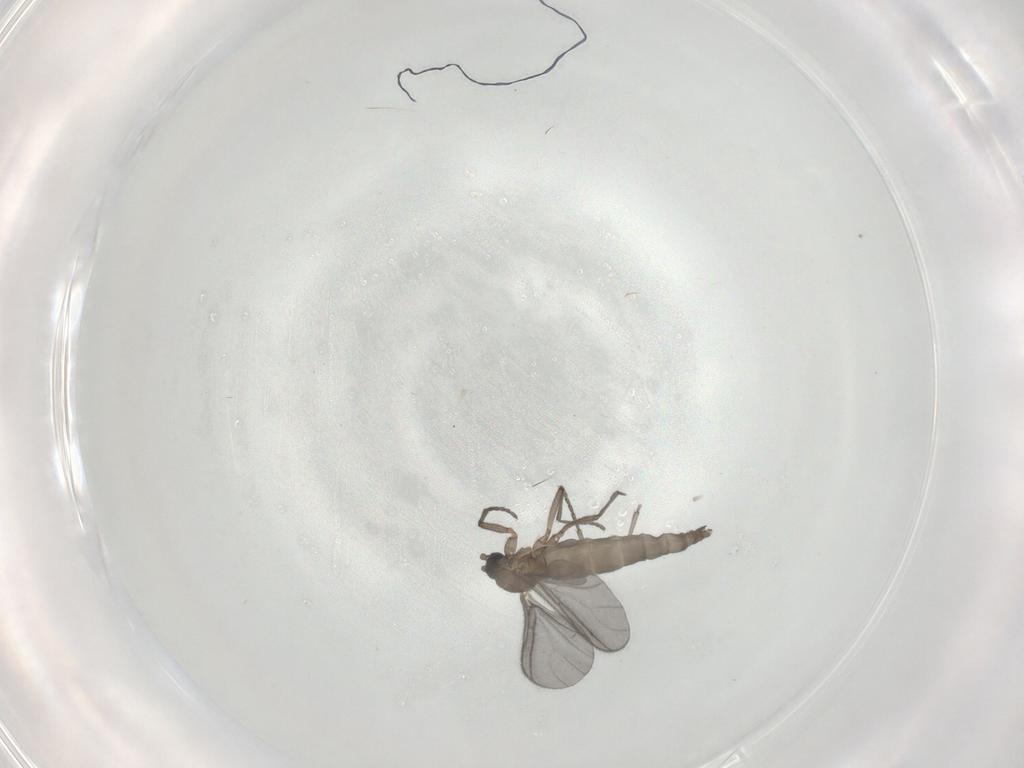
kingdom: Animalia
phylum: Arthropoda
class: Insecta
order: Diptera
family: Sciaridae
